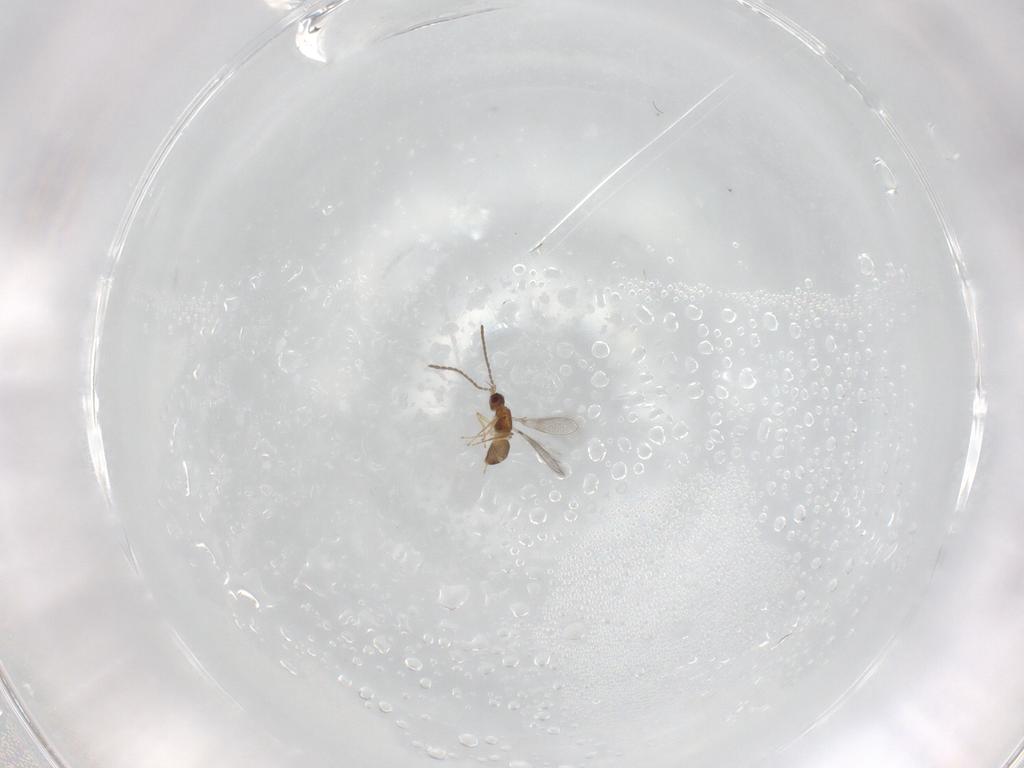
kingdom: Animalia
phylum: Arthropoda
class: Insecta
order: Hymenoptera
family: Mymaridae
